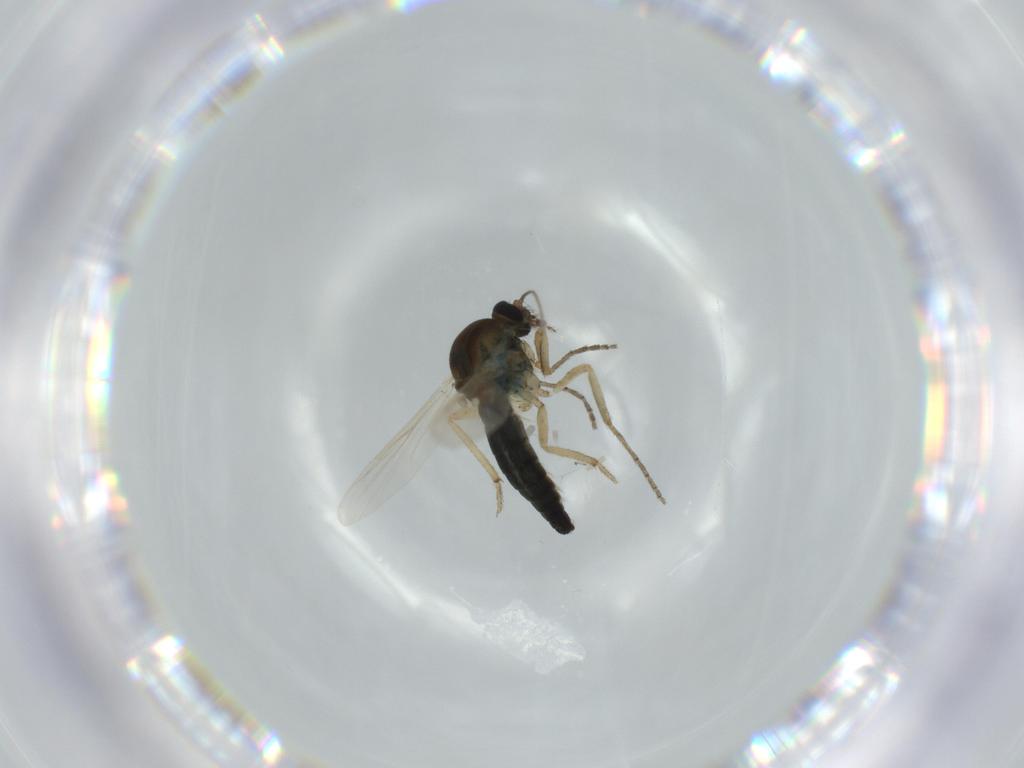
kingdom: Animalia
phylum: Arthropoda
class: Insecta
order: Diptera
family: Ceratopogonidae
